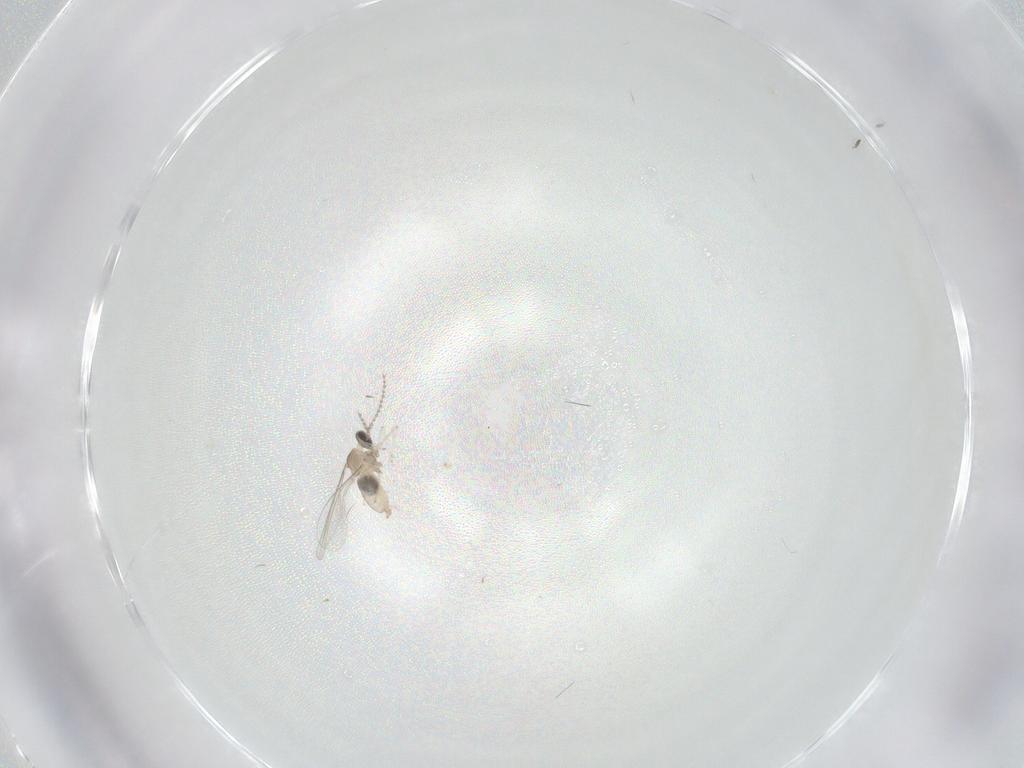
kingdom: Animalia
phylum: Arthropoda
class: Insecta
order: Diptera
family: Cecidomyiidae
